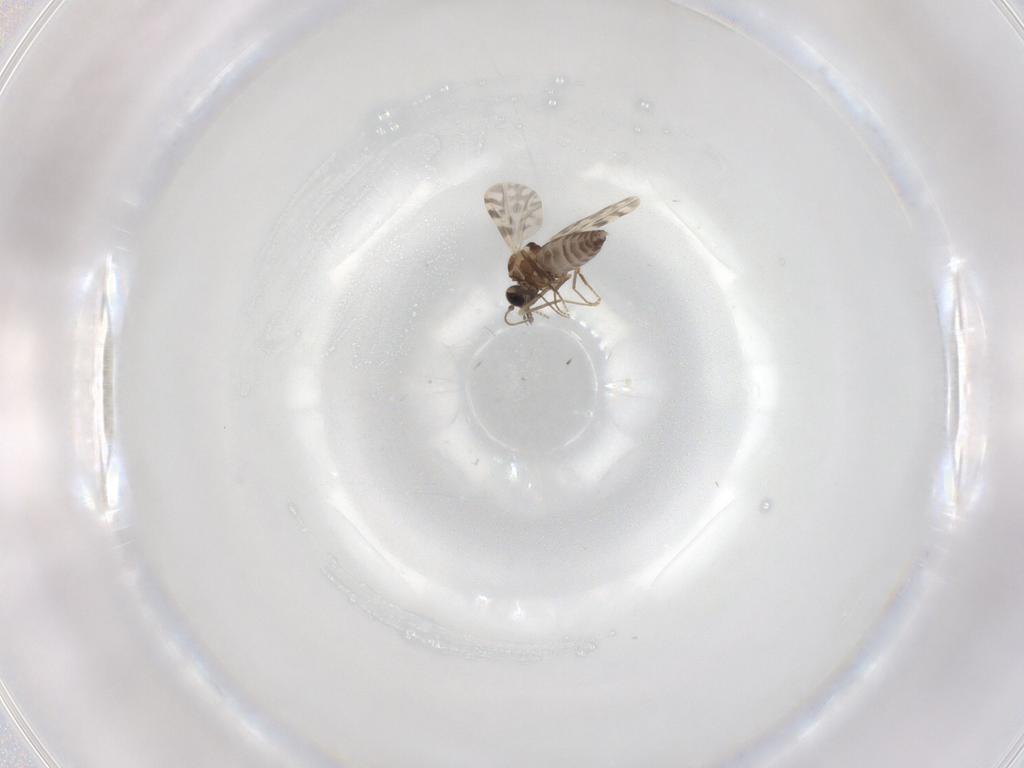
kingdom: Animalia
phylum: Arthropoda
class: Insecta
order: Diptera
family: Ceratopogonidae
